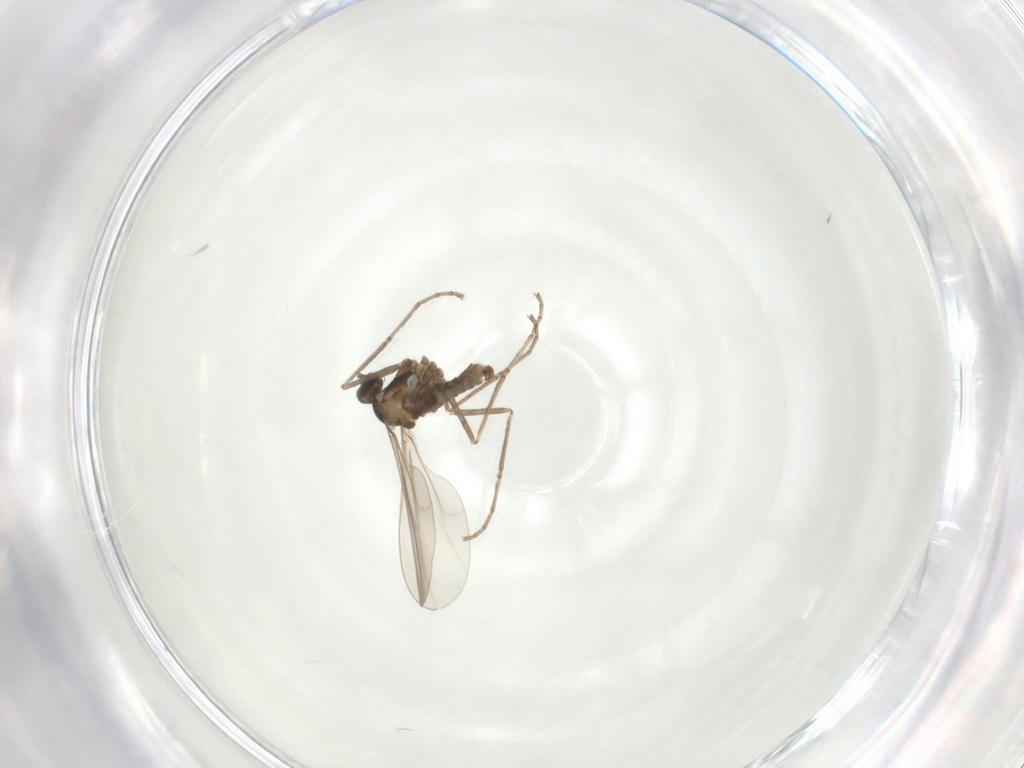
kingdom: Animalia
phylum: Arthropoda
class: Insecta
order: Diptera
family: Cecidomyiidae
